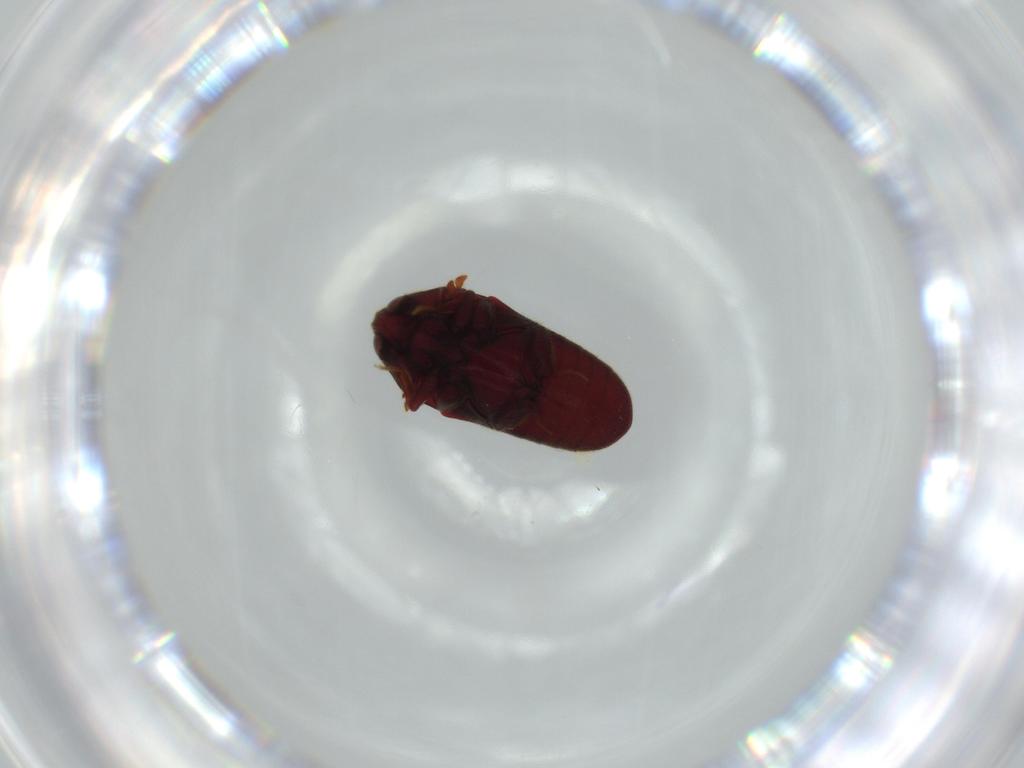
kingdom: Animalia
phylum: Arthropoda
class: Insecta
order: Coleoptera
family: Throscidae
